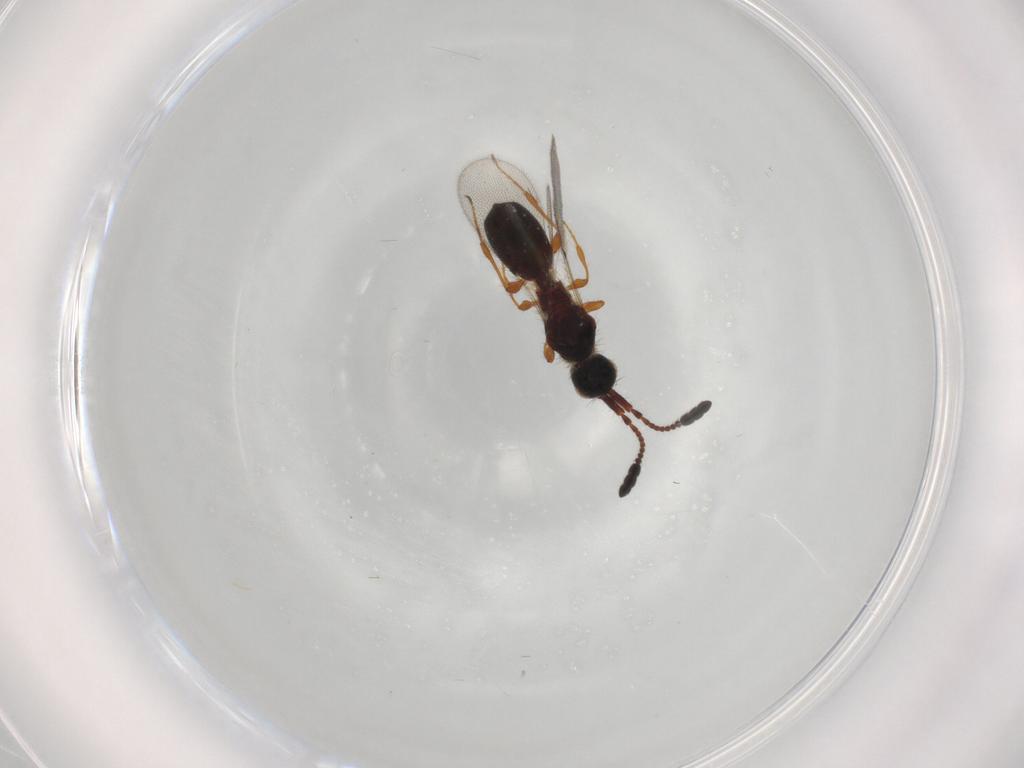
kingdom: Animalia
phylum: Arthropoda
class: Insecta
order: Hymenoptera
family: Diapriidae
